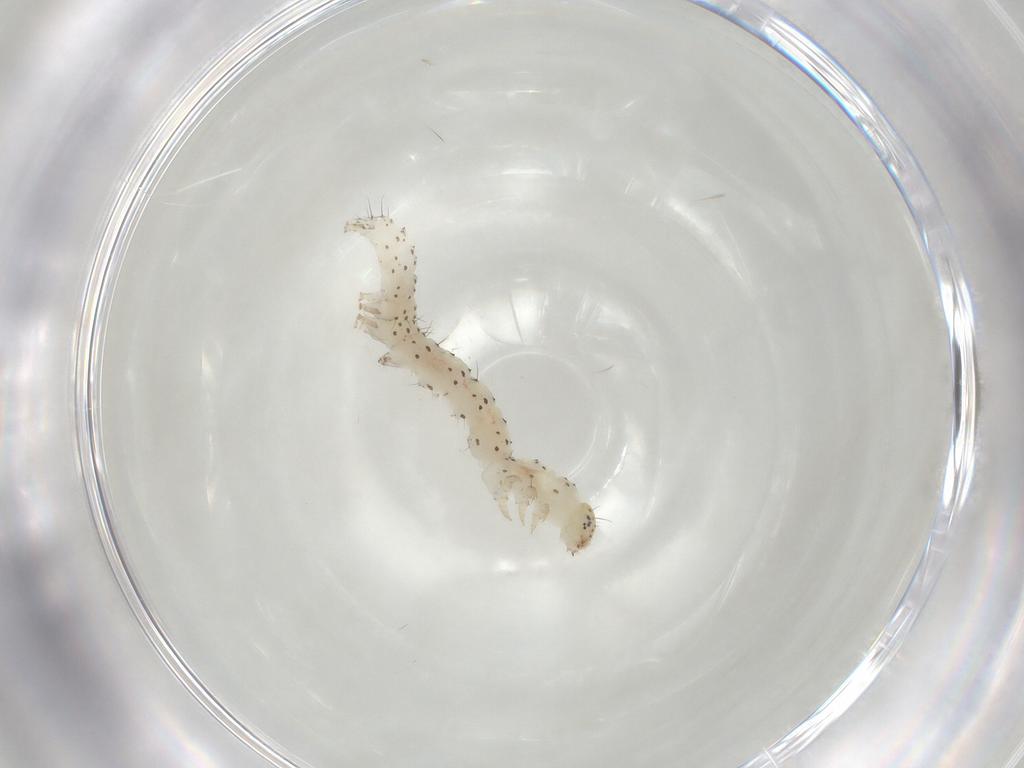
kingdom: Animalia
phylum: Arthropoda
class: Insecta
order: Lepidoptera
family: Erebidae
